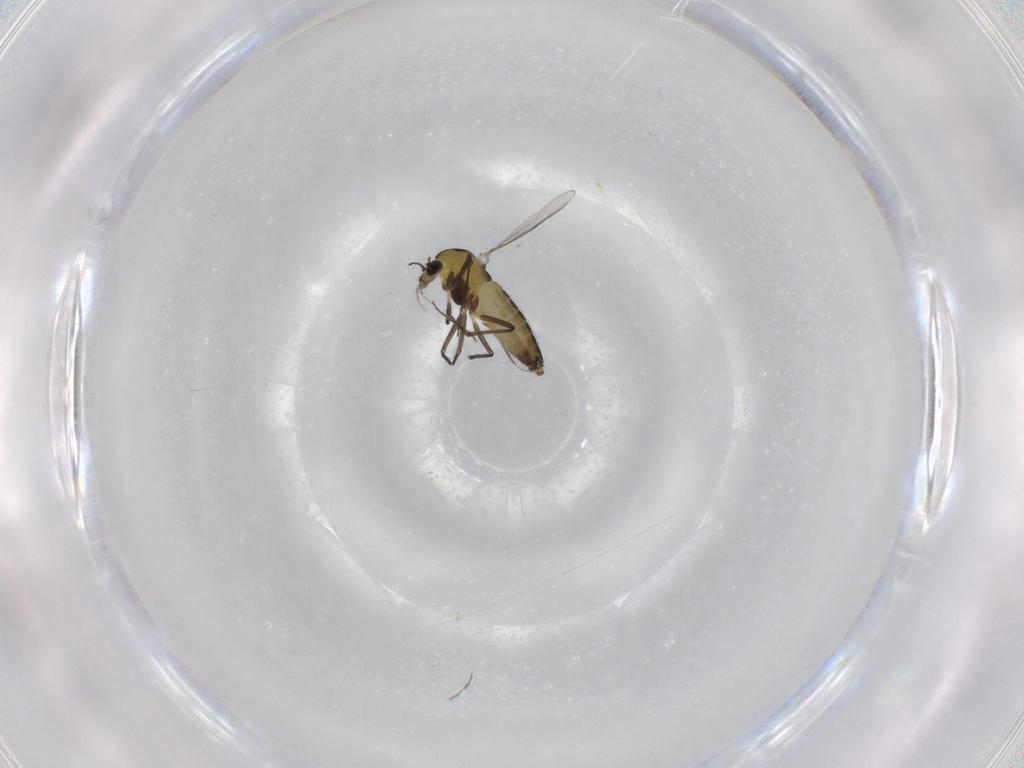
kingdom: Animalia
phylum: Arthropoda
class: Insecta
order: Diptera
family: Chironomidae
